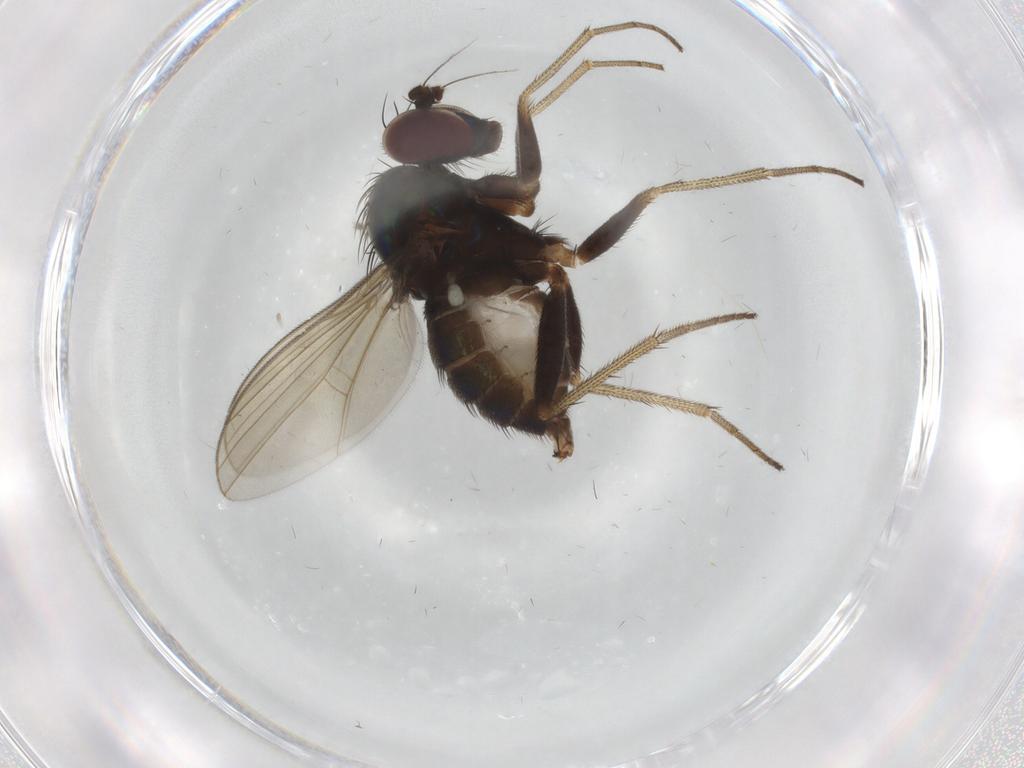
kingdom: Animalia
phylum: Arthropoda
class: Insecta
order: Diptera
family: Dolichopodidae
